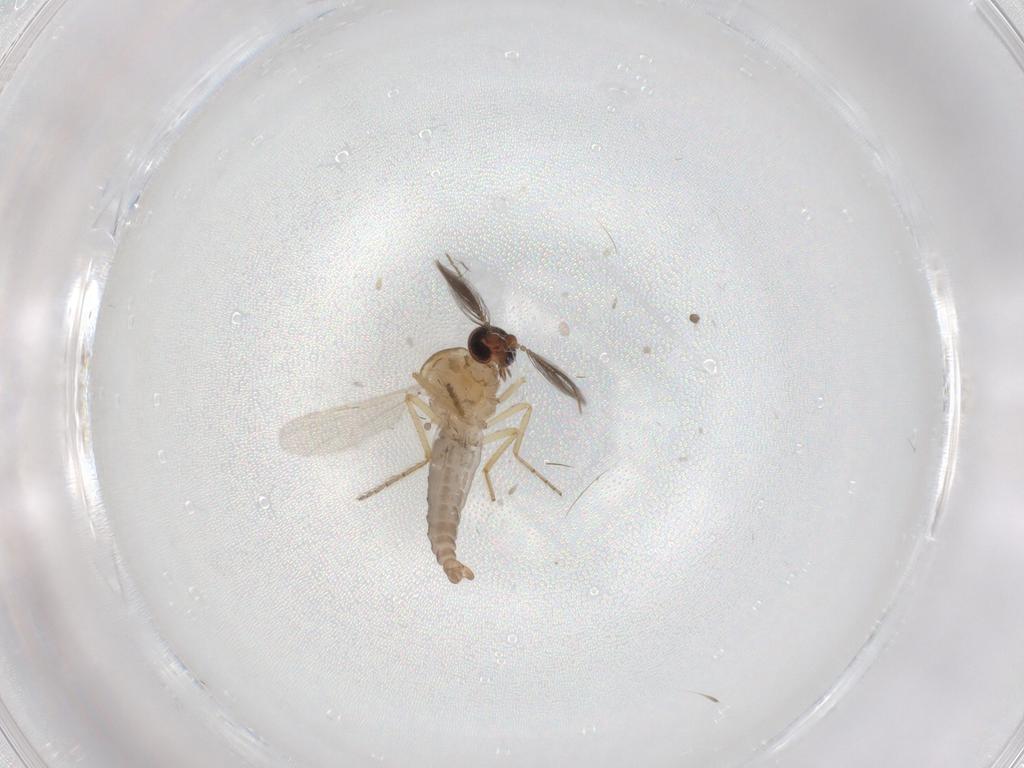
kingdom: Animalia
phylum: Arthropoda
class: Insecta
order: Diptera
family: Ceratopogonidae
